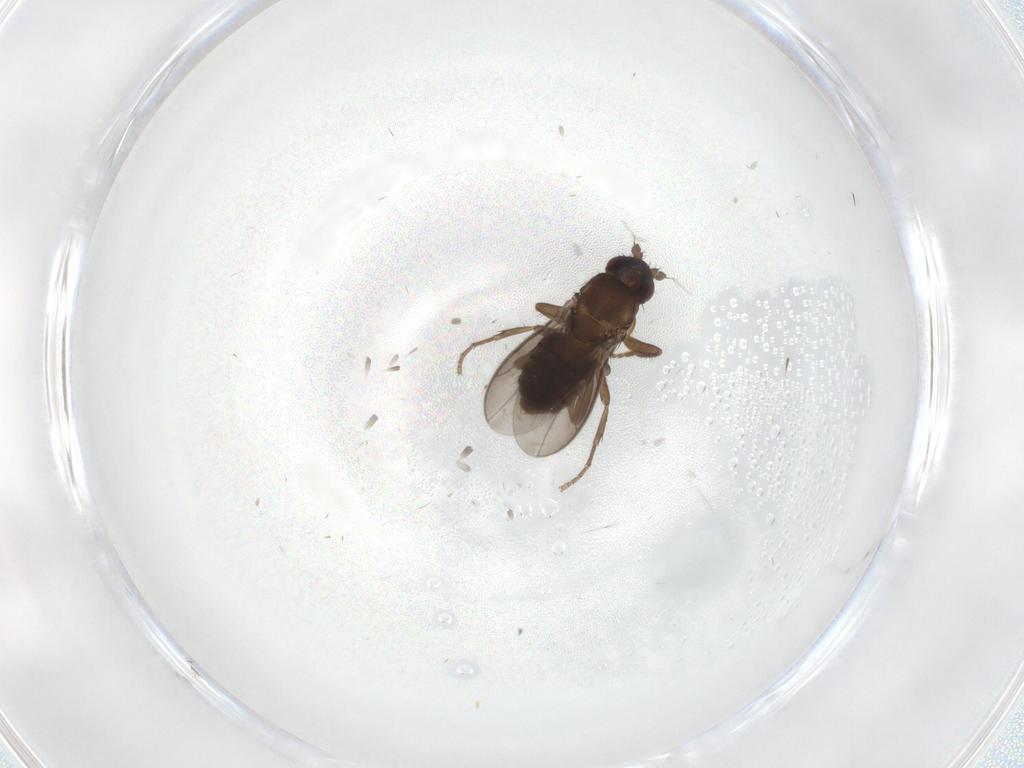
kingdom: Animalia
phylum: Arthropoda
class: Insecta
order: Diptera
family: Sphaeroceridae
